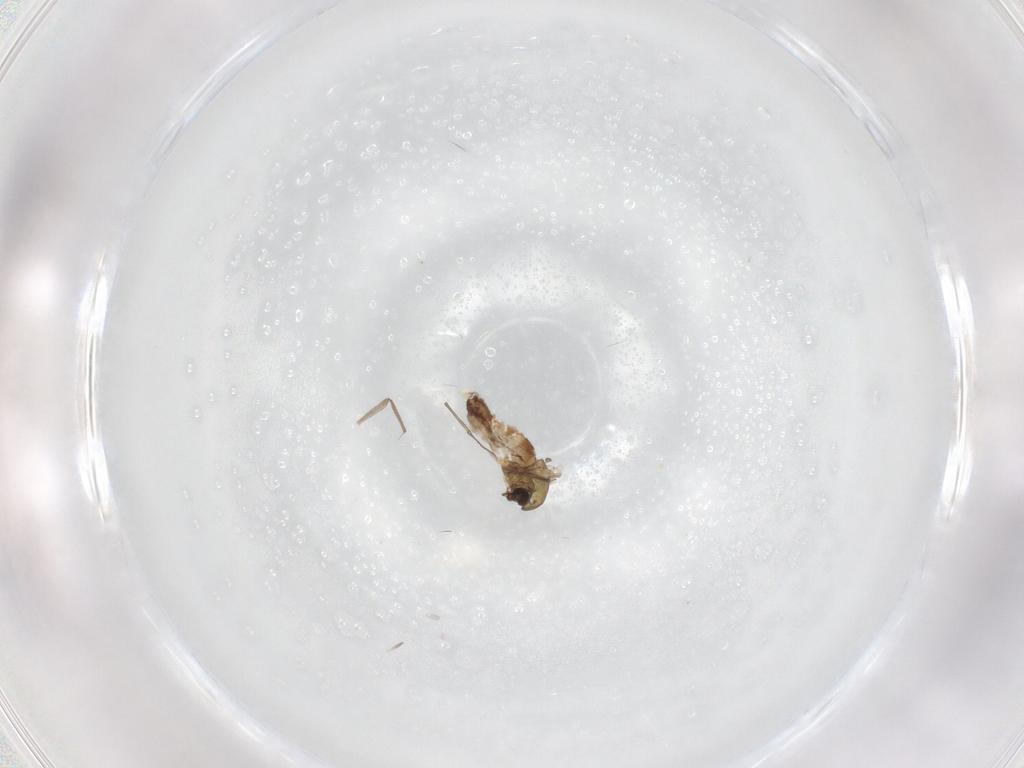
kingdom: Animalia
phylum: Arthropoda
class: Insecta
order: Diptera
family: Chironomidae
